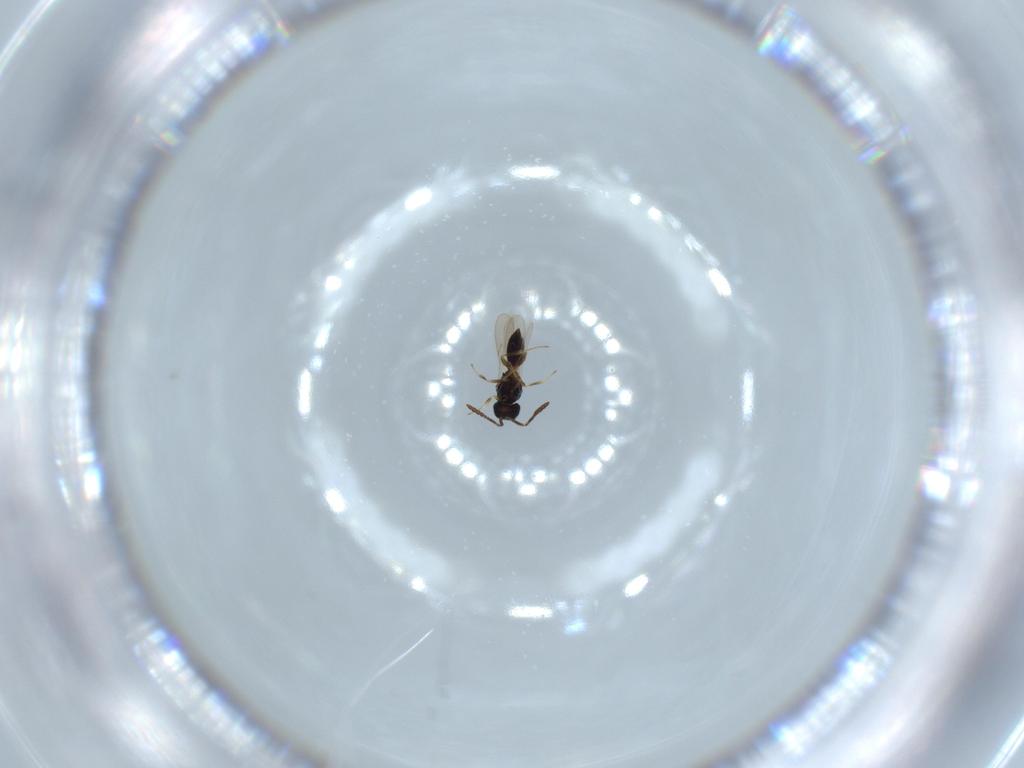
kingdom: Animalia
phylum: Arthropoda
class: Insecta
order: Hymenoptera
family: Scelionidae
